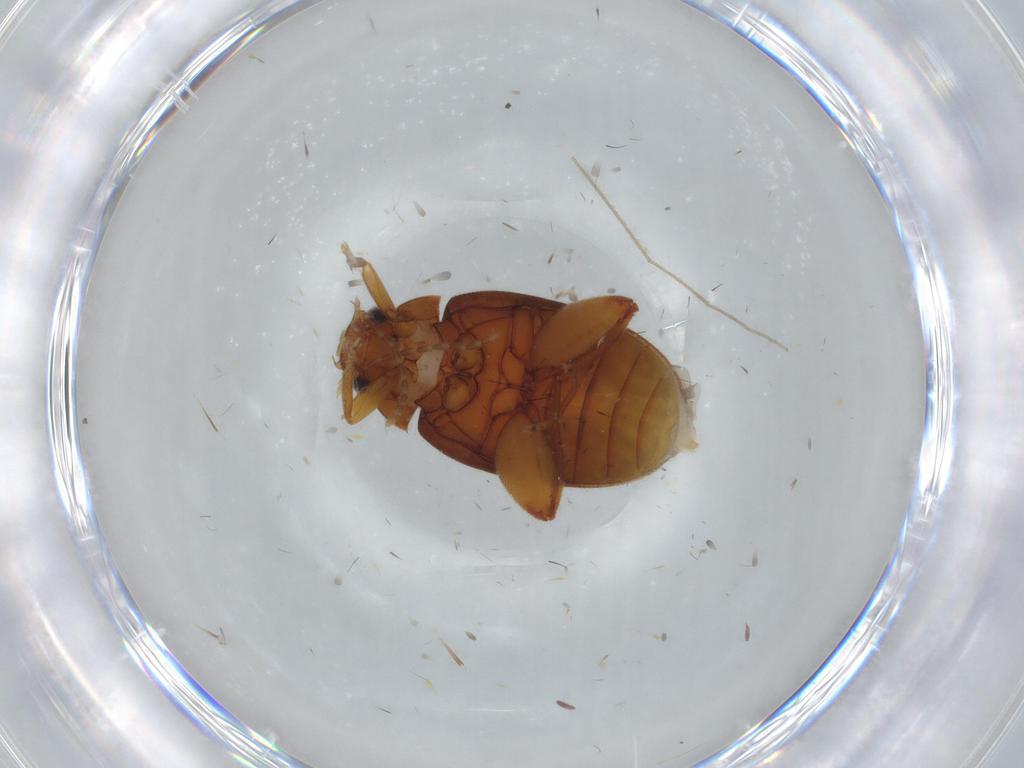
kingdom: Animalia
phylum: Arthropoda
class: Insecta
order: Coleoptera
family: Scirtidae
